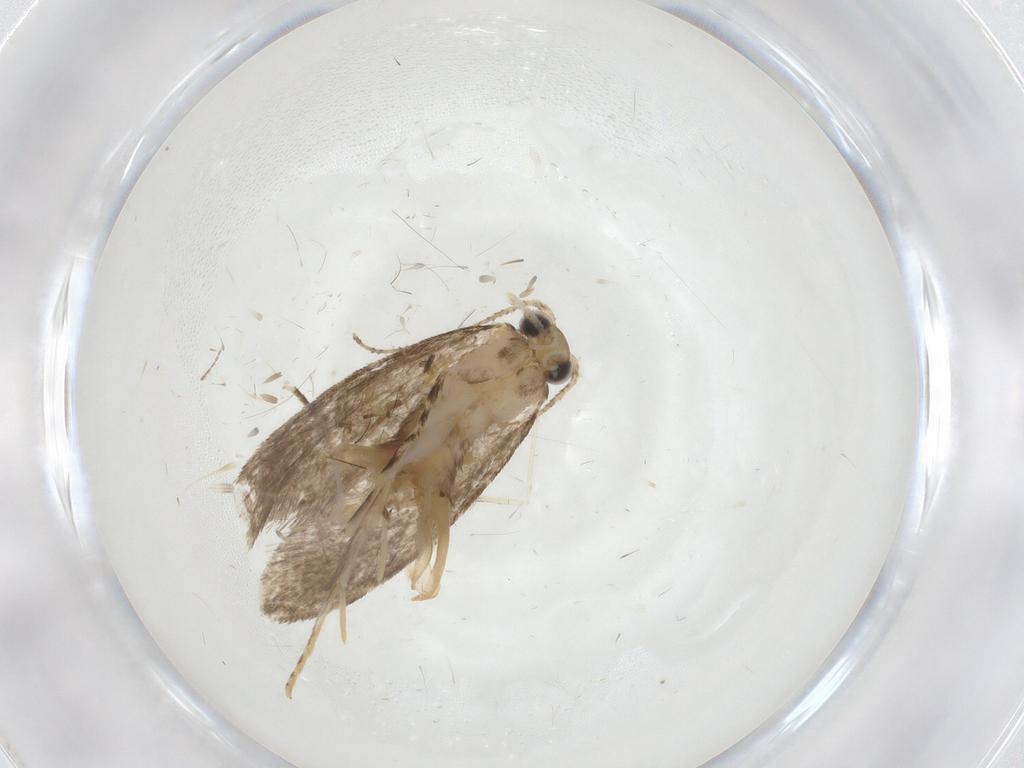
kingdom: Animalia
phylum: Arthropoda
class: Insecta
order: Lepidoptera
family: Tineidae
